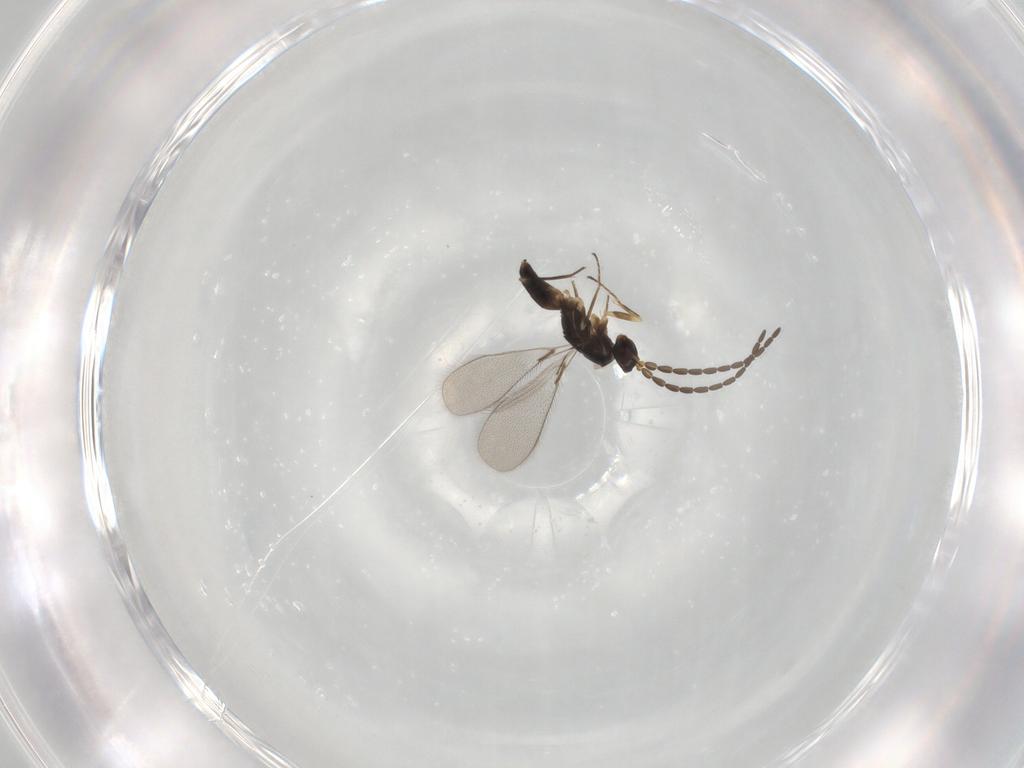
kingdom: Animalia
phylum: Arthropoda
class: Insecta
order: Hymenoptera
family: Mymaridae
